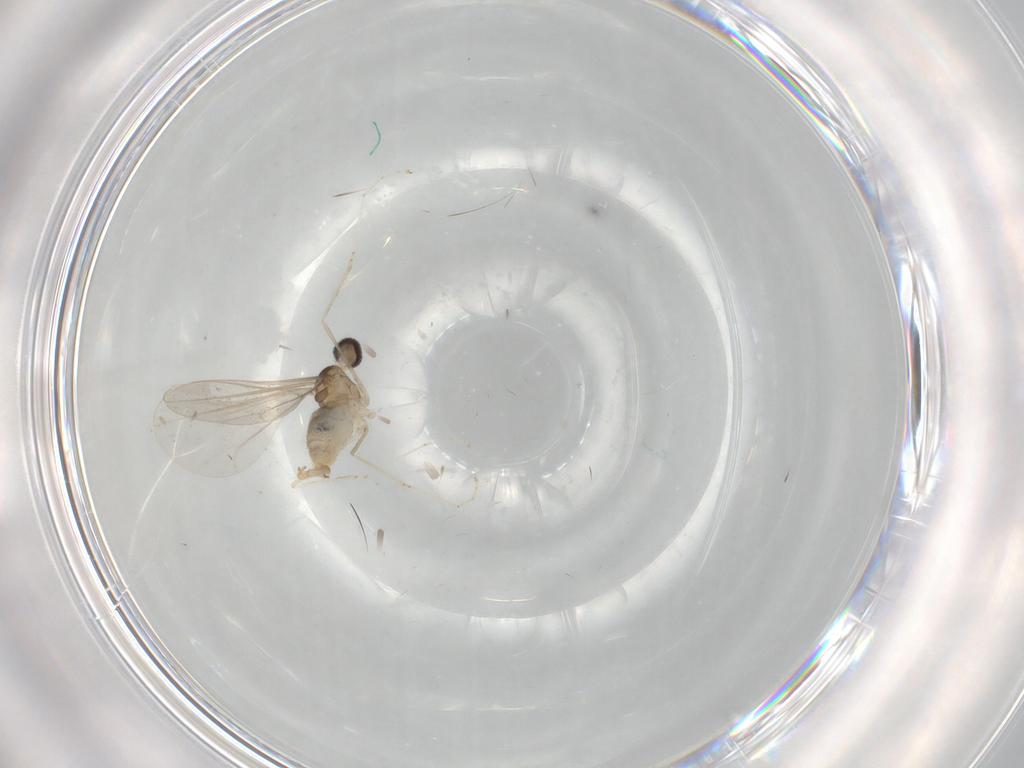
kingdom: Animalia
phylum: Arthropoda
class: Insecta
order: Diptera
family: Cecidomyiidae
